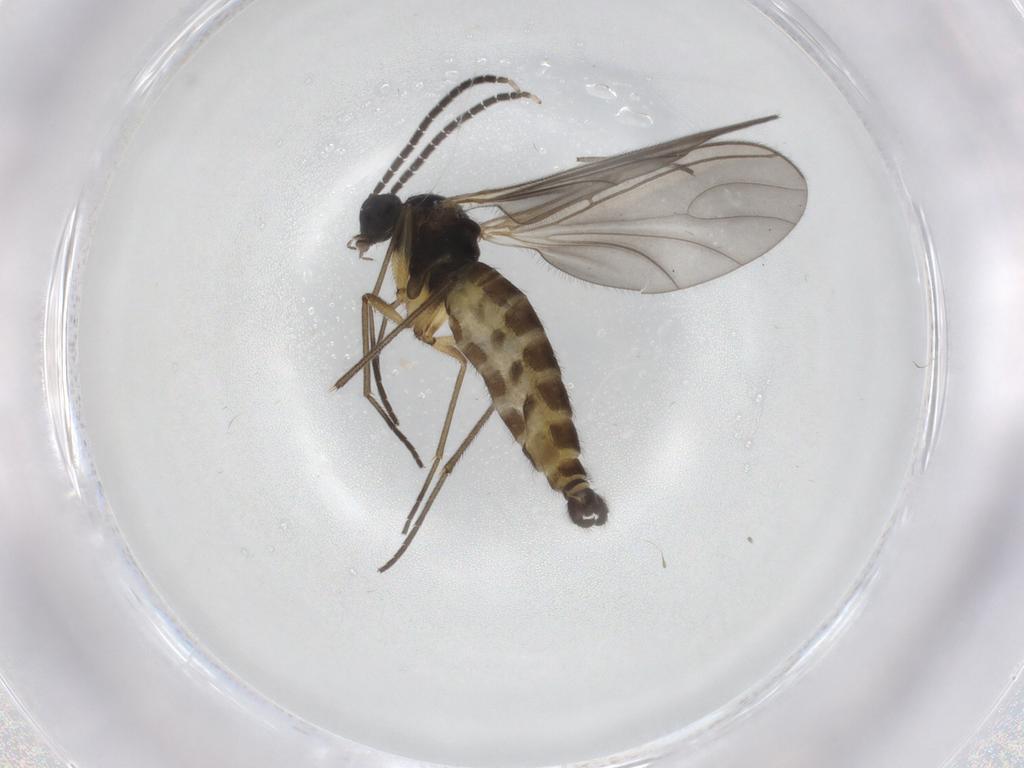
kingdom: Animalia
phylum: Arthropoda
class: Insecta
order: Diptera
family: Sciaridae
